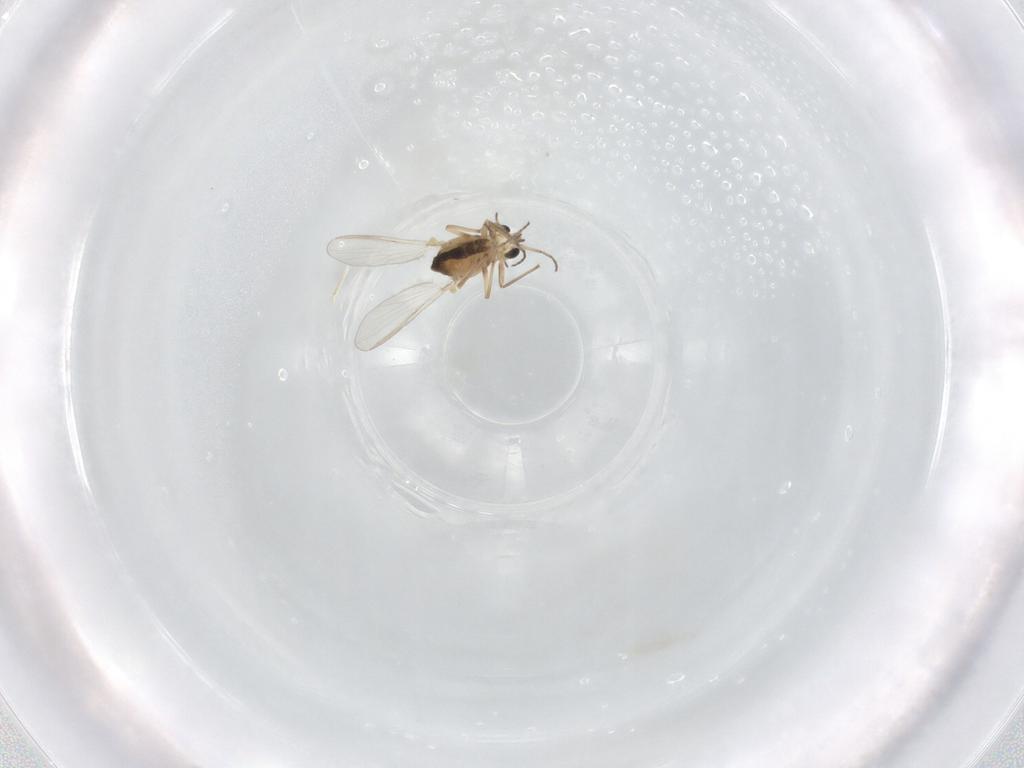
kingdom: Animalia
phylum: Arthropoda
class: Insecta
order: Diptera
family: Chironomidae
